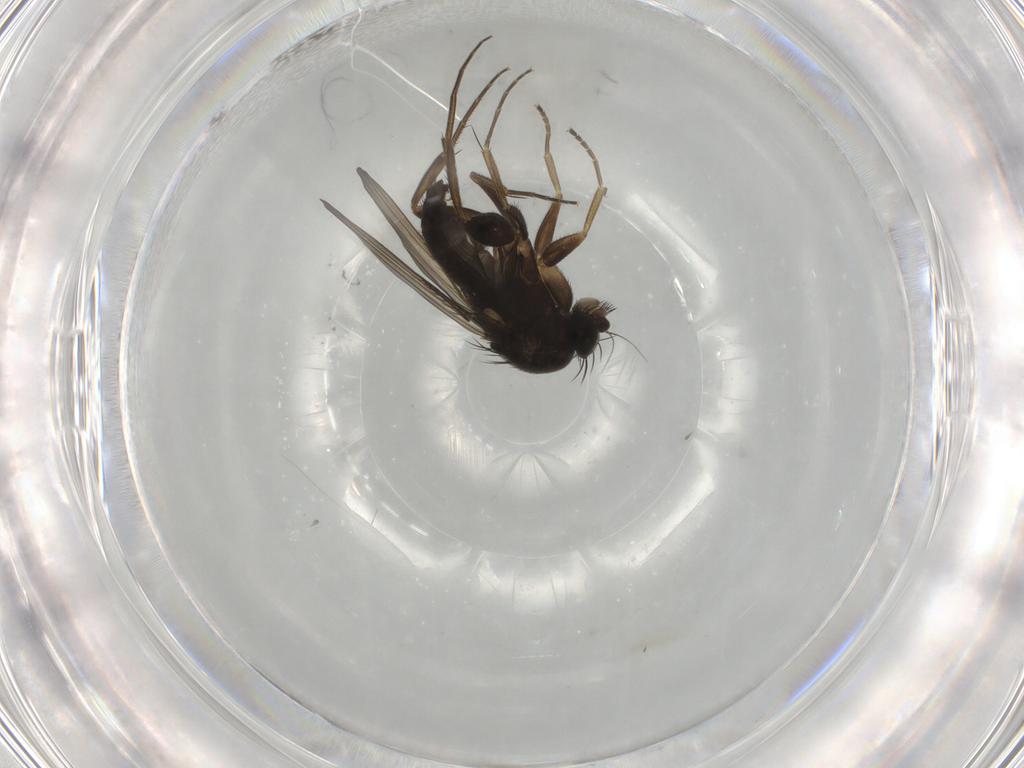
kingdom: Animalia
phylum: Arthropoda
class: Insecta
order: Diptera
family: Phoridae
